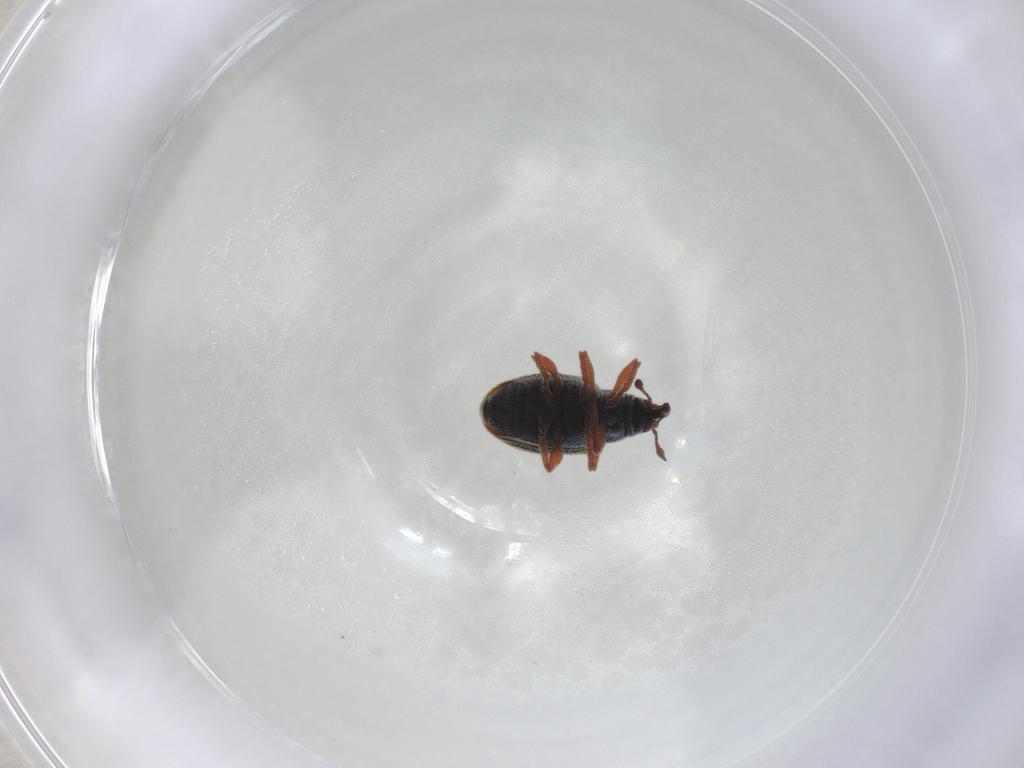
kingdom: Animalia
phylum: Arthropoda
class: Insecta
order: Coleoptera
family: Curculionidae
